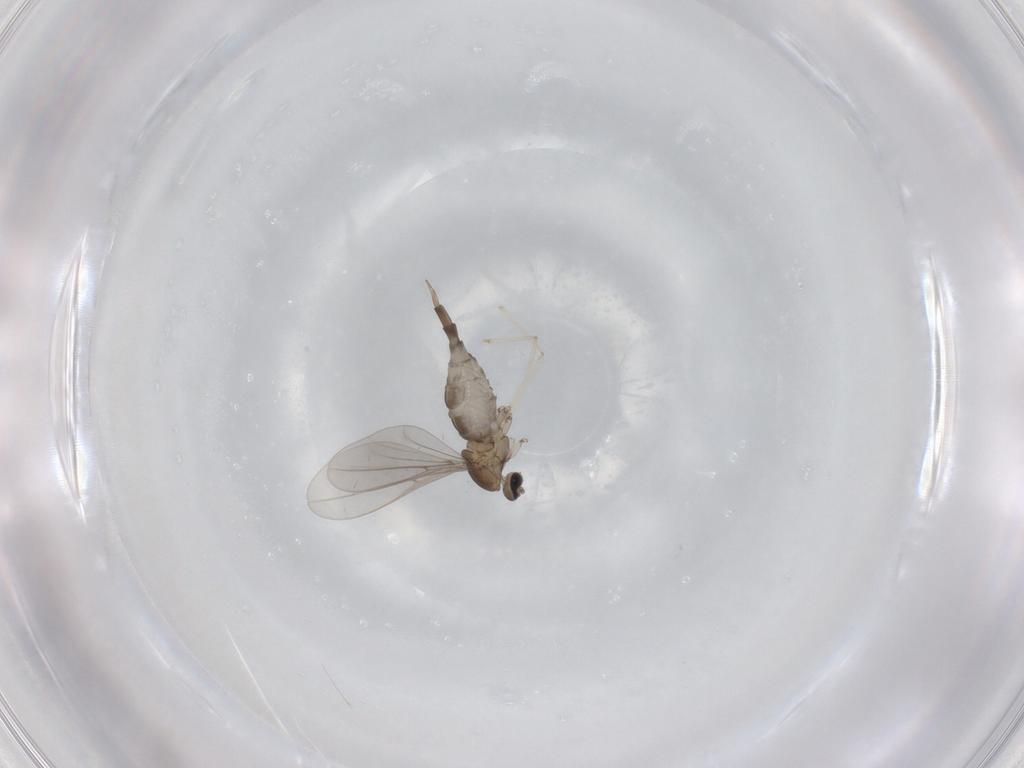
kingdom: Animalia
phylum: Arthropoda
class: Insecta
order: Diptera
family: Cecidomyiidae
